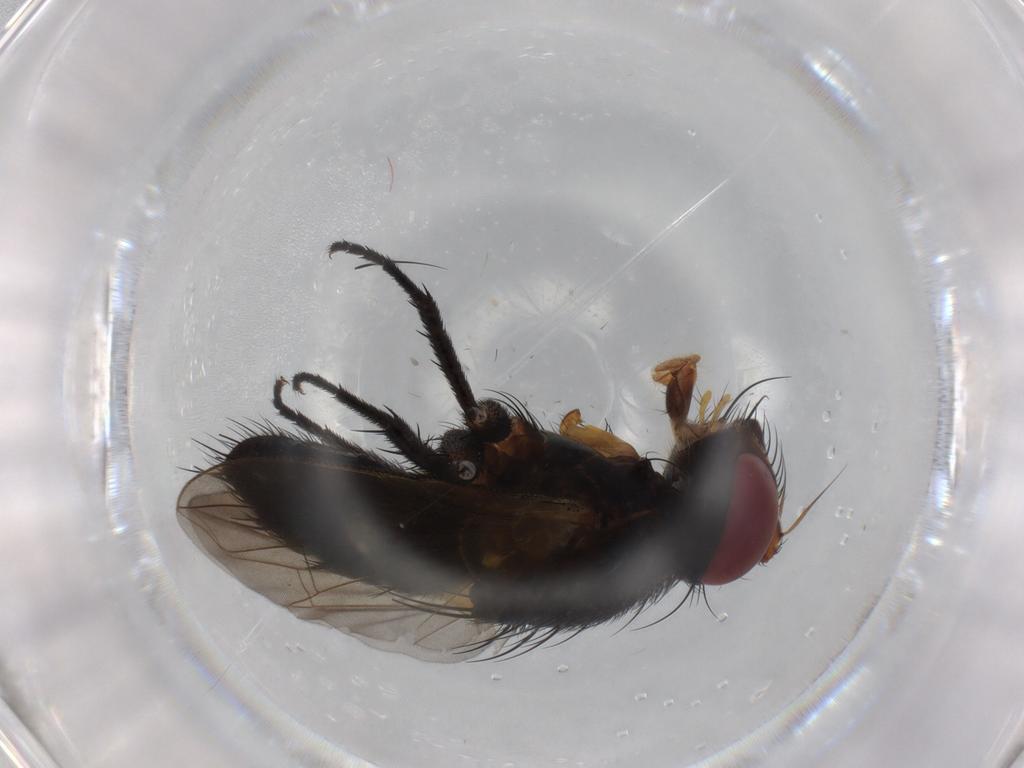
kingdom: Animalia
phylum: Arthropoda
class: Insecta
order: Diptera
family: Agromyzidae
